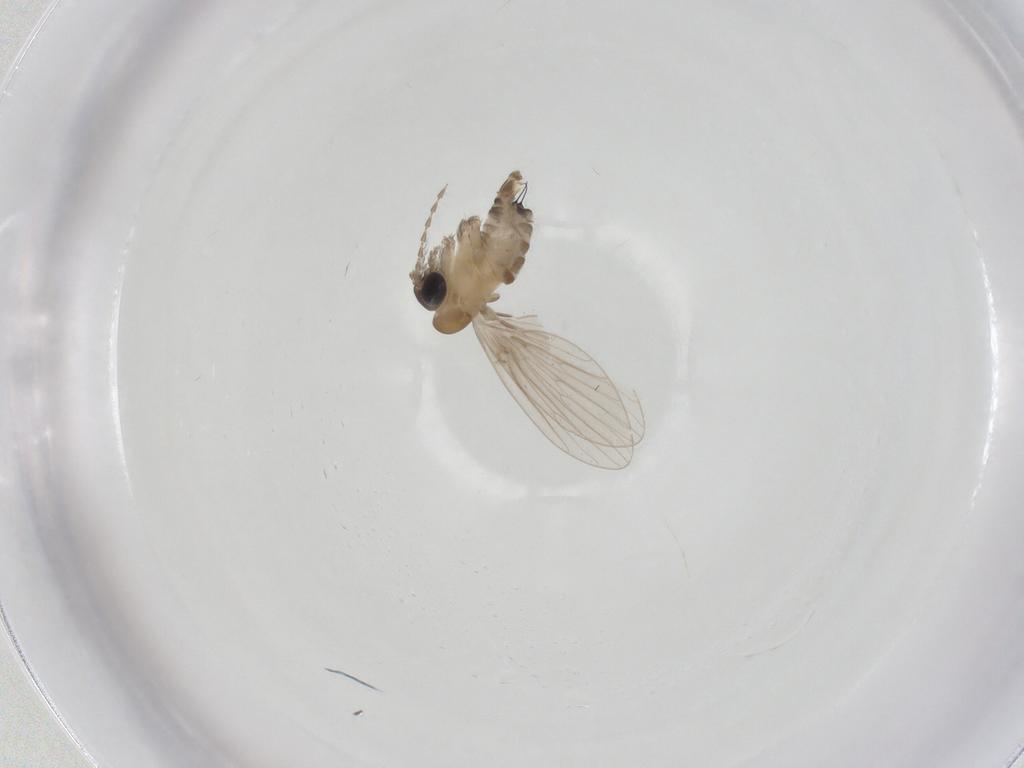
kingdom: Animalia
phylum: Arthropoda
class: Insecta
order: Diptera
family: Psychodidae
